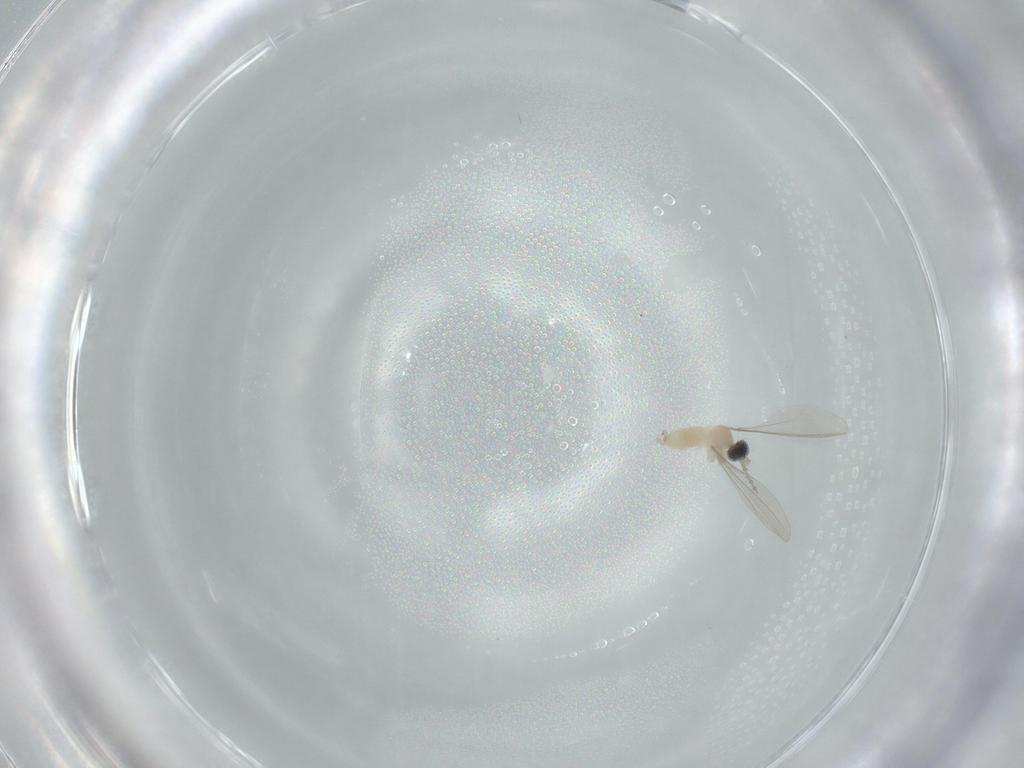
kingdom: Animalia
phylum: Arthropoda
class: Insecta
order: Diptera
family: Cecidomyiidae
